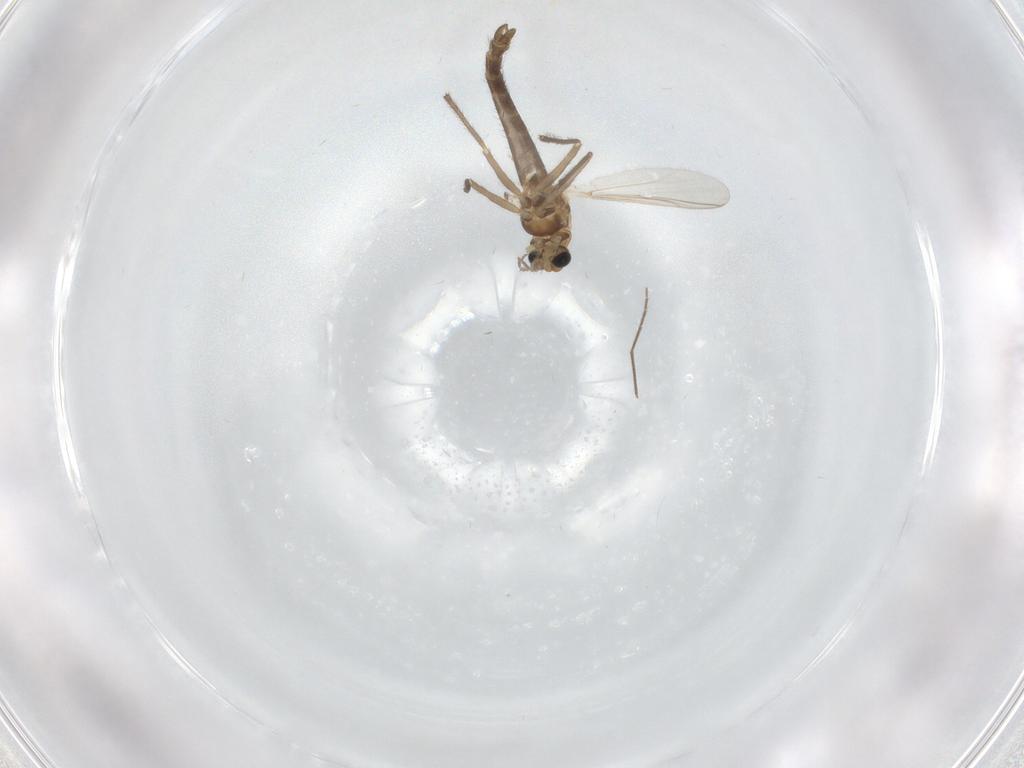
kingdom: Animalia
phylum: Arthropoda
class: Insecta
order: Diptera
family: Chironomidae
